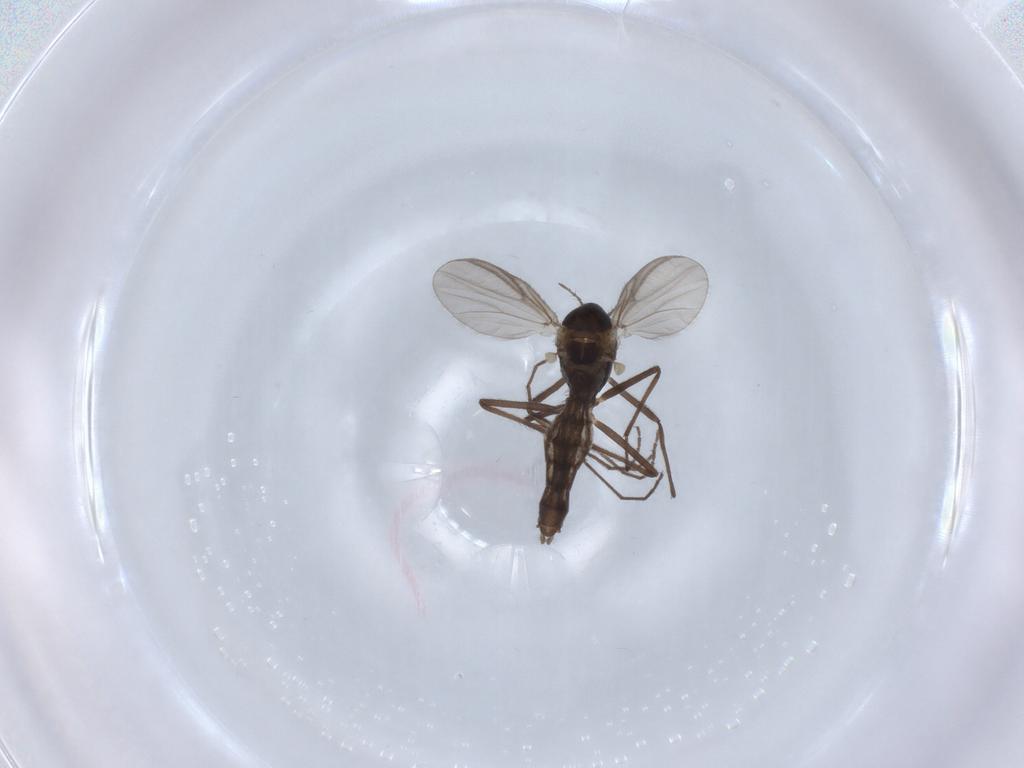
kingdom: Animalia
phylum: Arthropoda
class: Insecta
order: Diptera
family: Chironomidae
